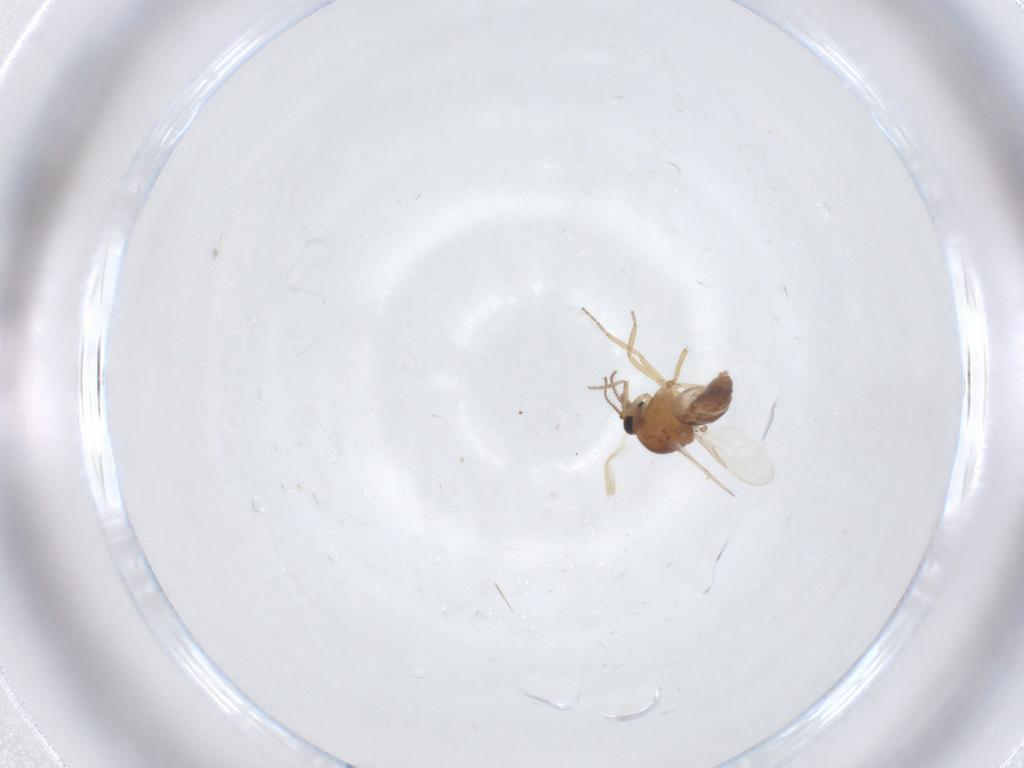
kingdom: Animalia
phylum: Arthropoda
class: Insecta
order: Diptera
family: Ceratopogonidae
